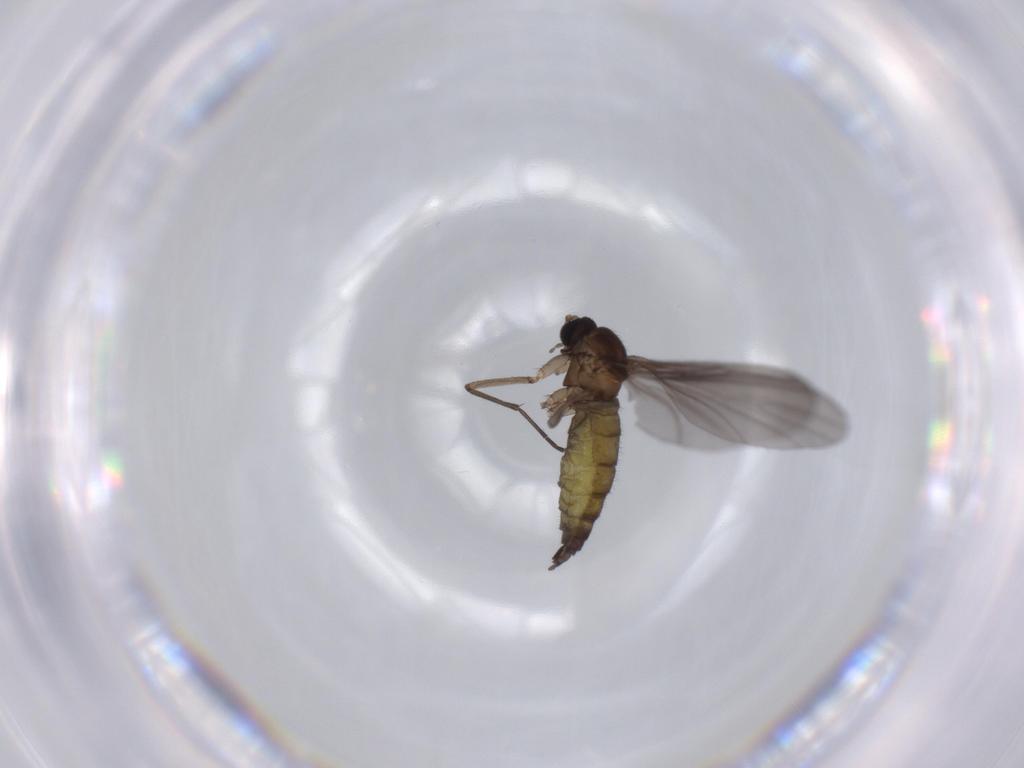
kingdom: Animalia
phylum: Arthropoda
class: Insecta
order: Diptera
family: Sciaridae
